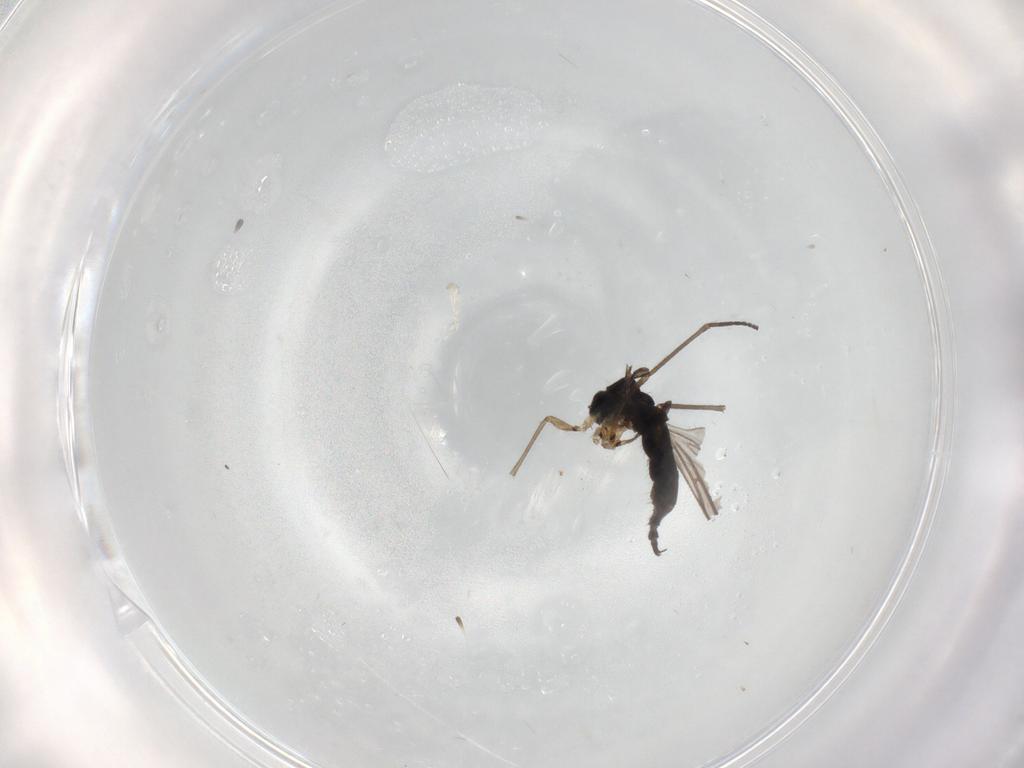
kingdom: Animalia
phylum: Arthropoda
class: Insecta
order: Diptera
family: Sciaridae
